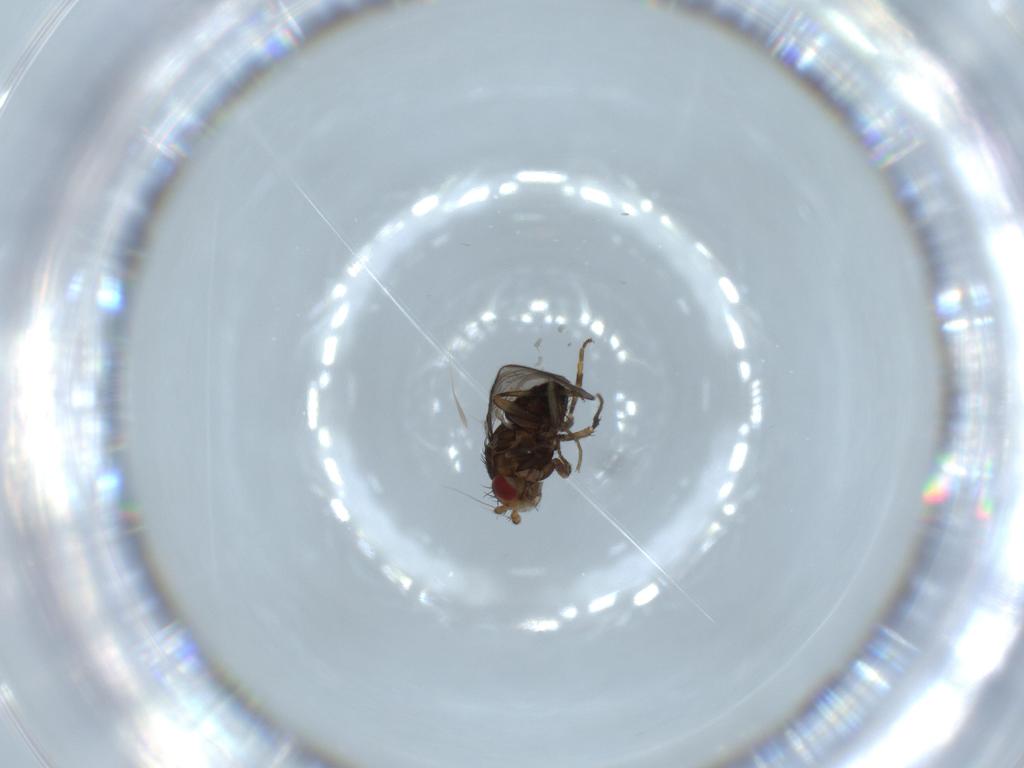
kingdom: Animalia
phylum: Arthropoda
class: Insecta
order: Diptera
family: Sphaeroceridae
